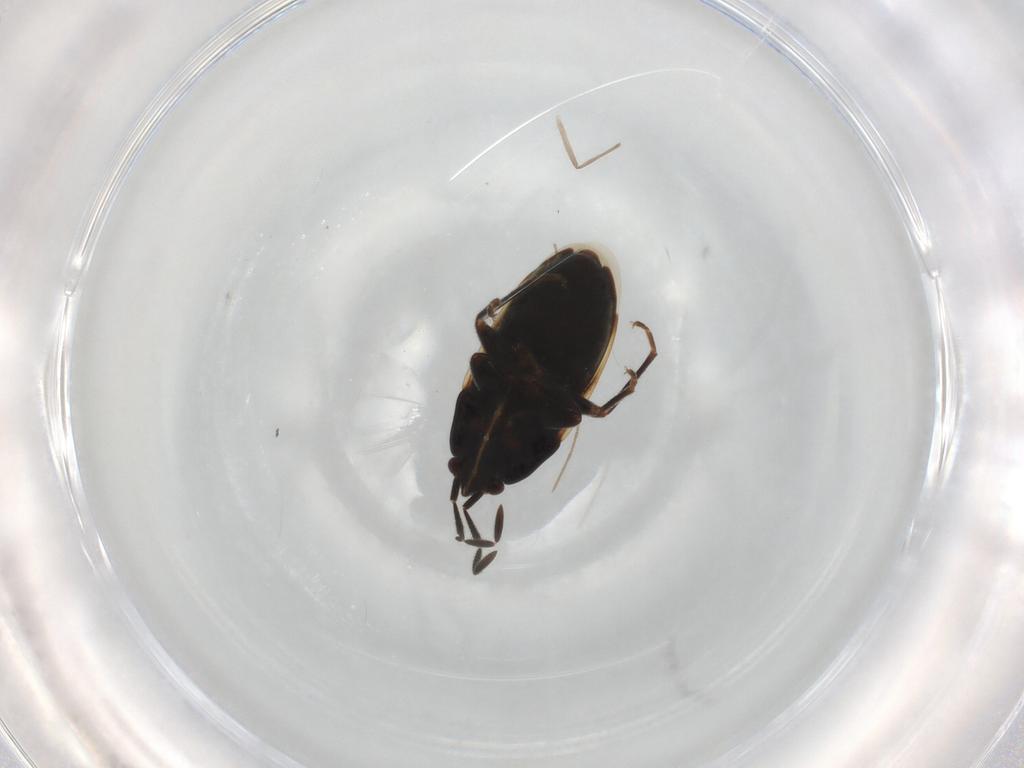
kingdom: Animalia
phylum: Arthropoda
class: Insecta
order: Hemiptera
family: Rhyparochromidae
